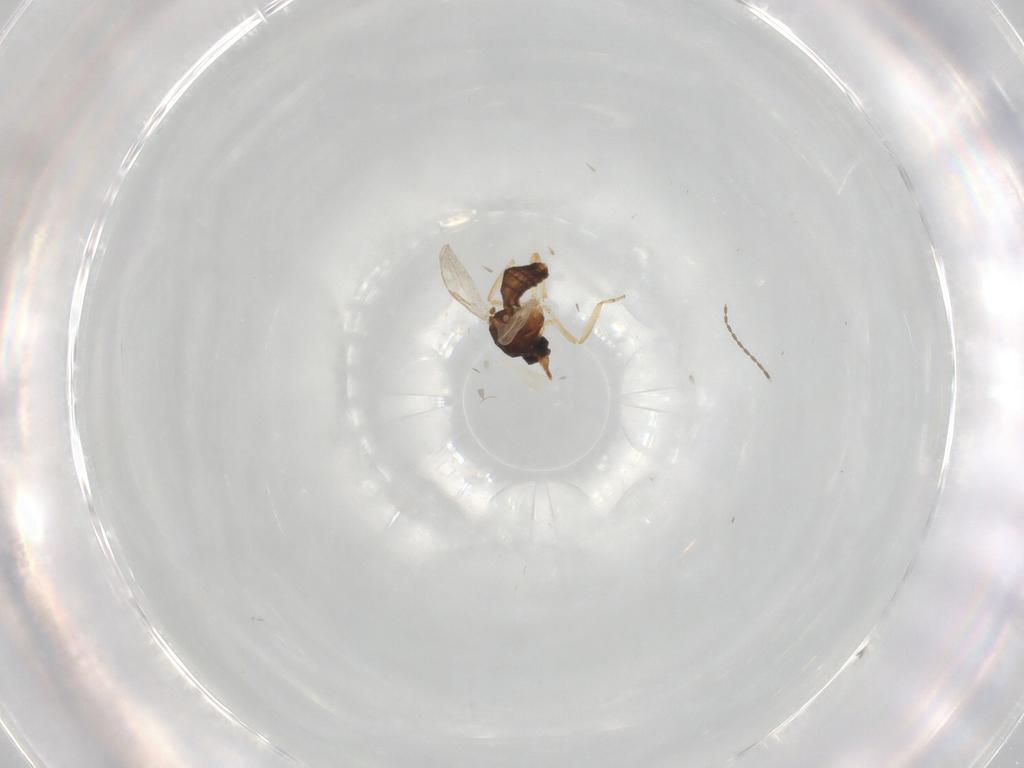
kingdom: Animalia
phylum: Arthropoda
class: Insecta
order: Diptera
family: Cecidomyiidae
